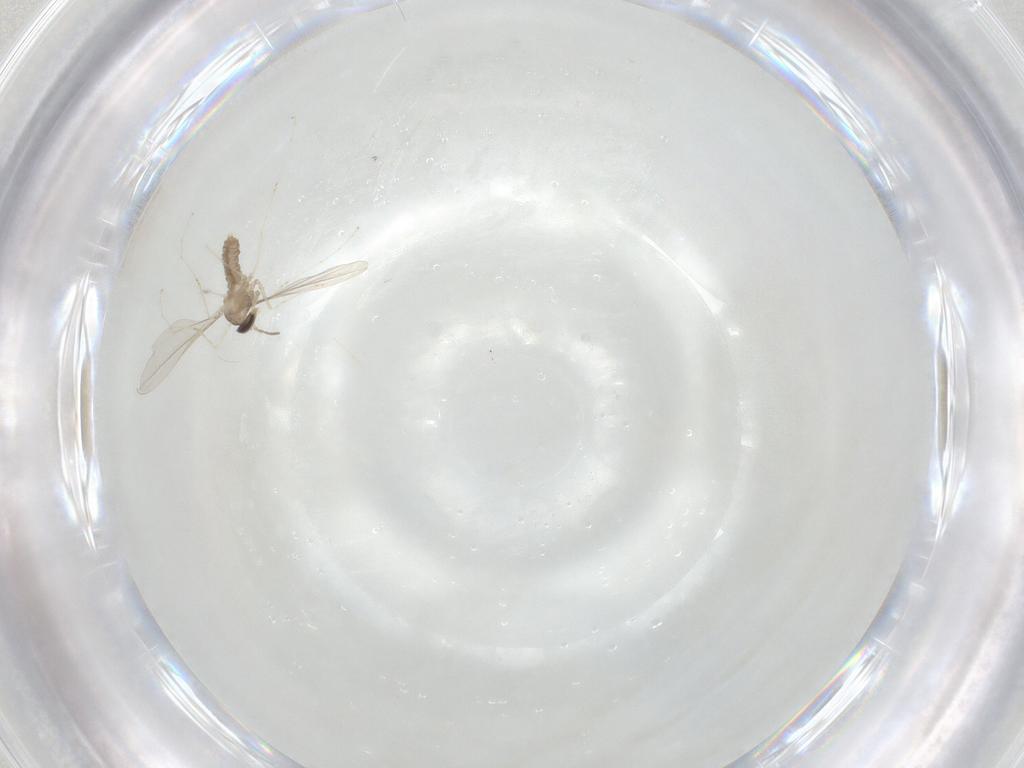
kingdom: Animalia
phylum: Arthropoda
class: Insecta
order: Diptera
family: Cecidomyiidae
